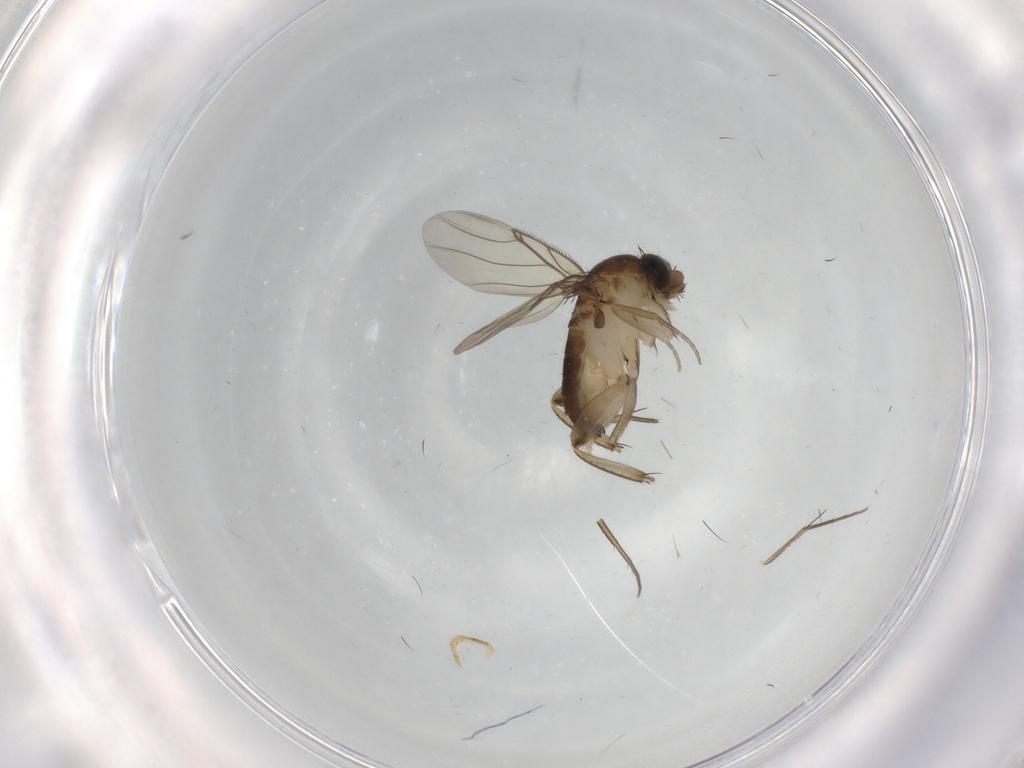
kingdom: Animalia
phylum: Arthropoda
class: Insecta
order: Diptera
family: Phoridae
